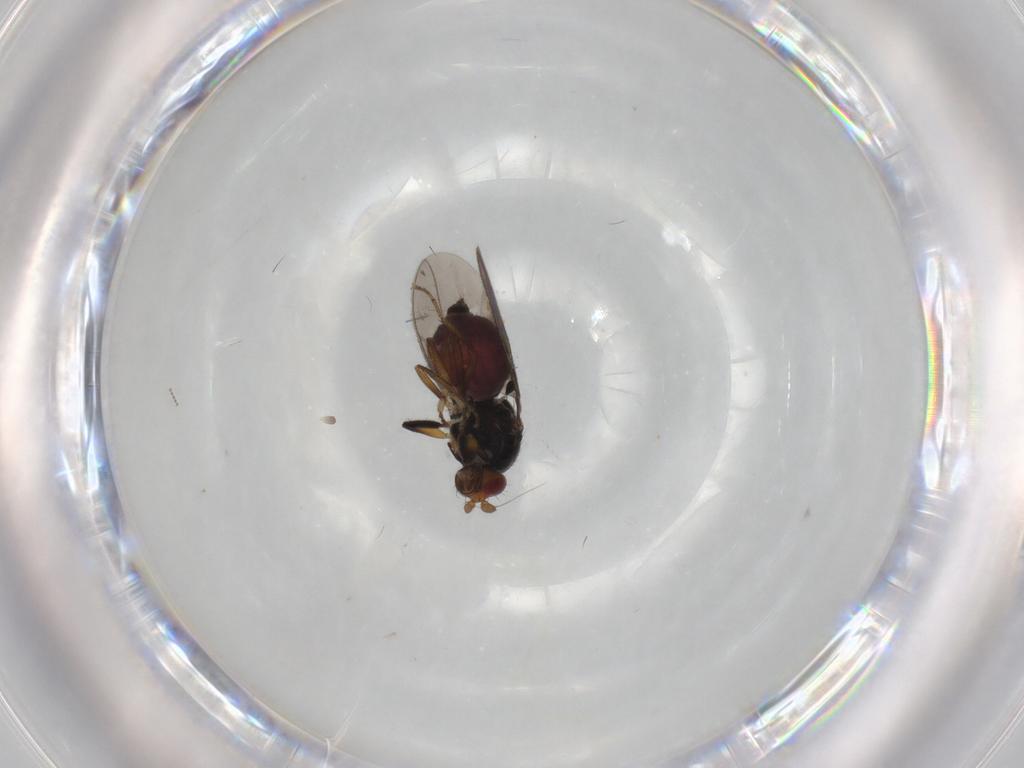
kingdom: Animalia
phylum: Arthropoda
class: Insecta
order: Diptera
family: Sphaeroceridae
